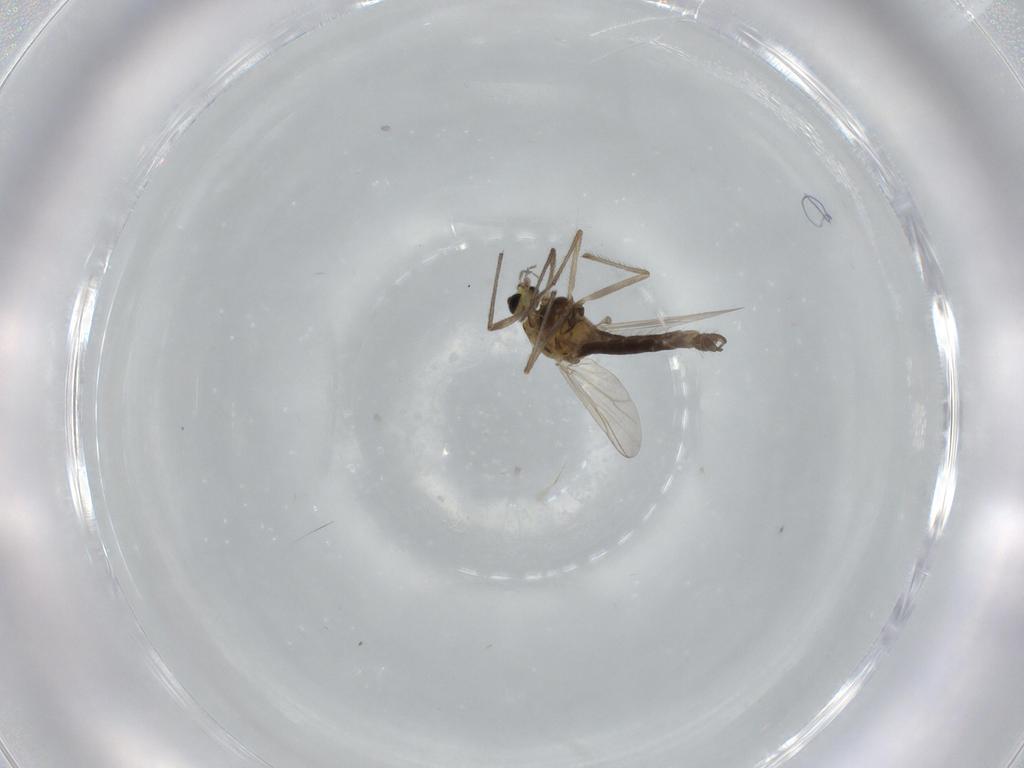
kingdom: Animalia
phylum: Arthropoda
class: Insecta
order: Diptera
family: Chironomidae
